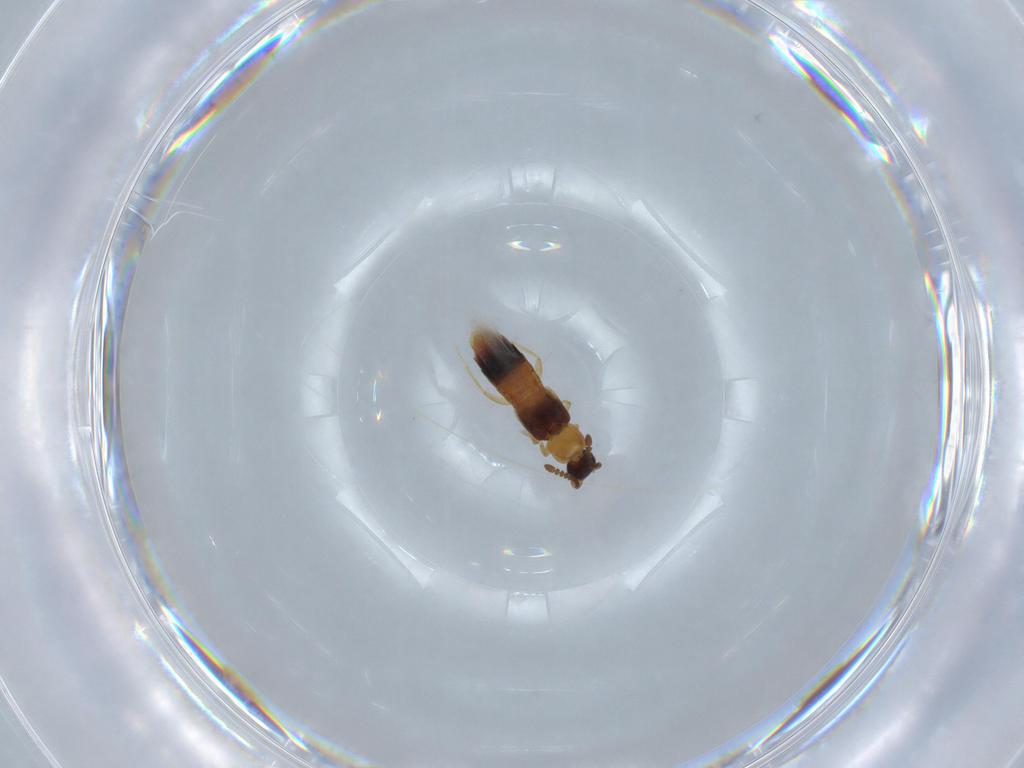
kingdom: Animalia
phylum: Arthropoda
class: Insecta
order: Coleoptera
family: Staphylinidae
